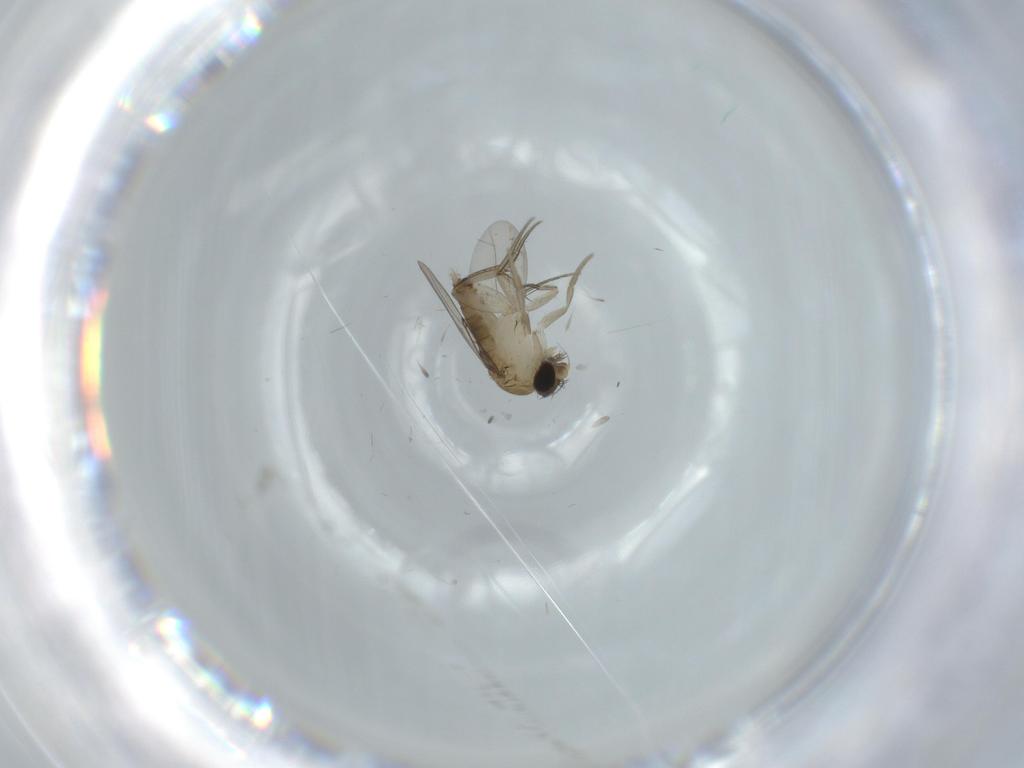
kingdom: Animalia
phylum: Arthropoda
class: Insecta
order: Diptera
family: Phoridae
